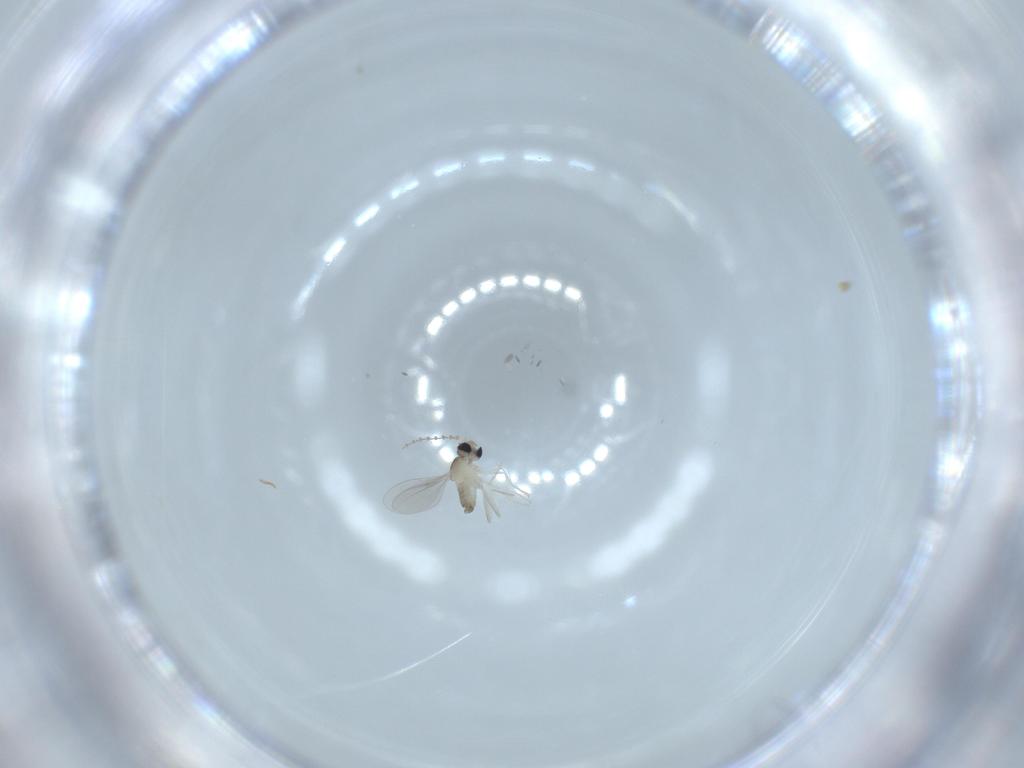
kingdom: Animalia
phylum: Arthropoda
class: Insecta
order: Diptera
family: Cecidomyiidae
